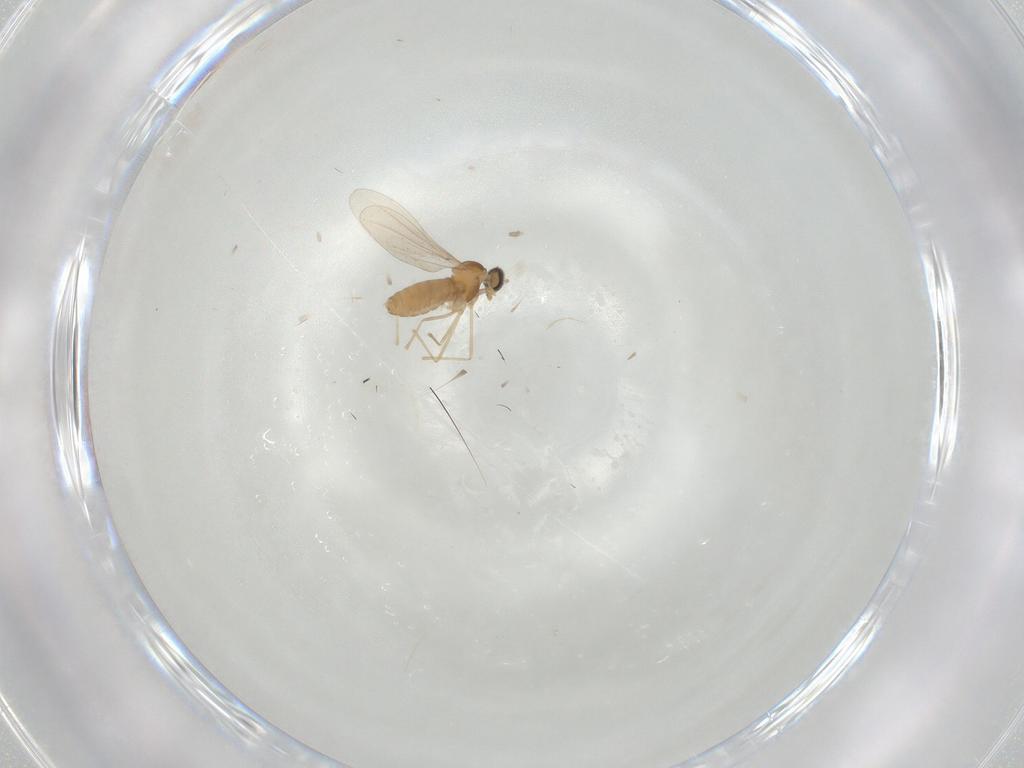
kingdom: Animalia
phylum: Arthropoda
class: Insecta
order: Diptera
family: Cecidomyiidae
